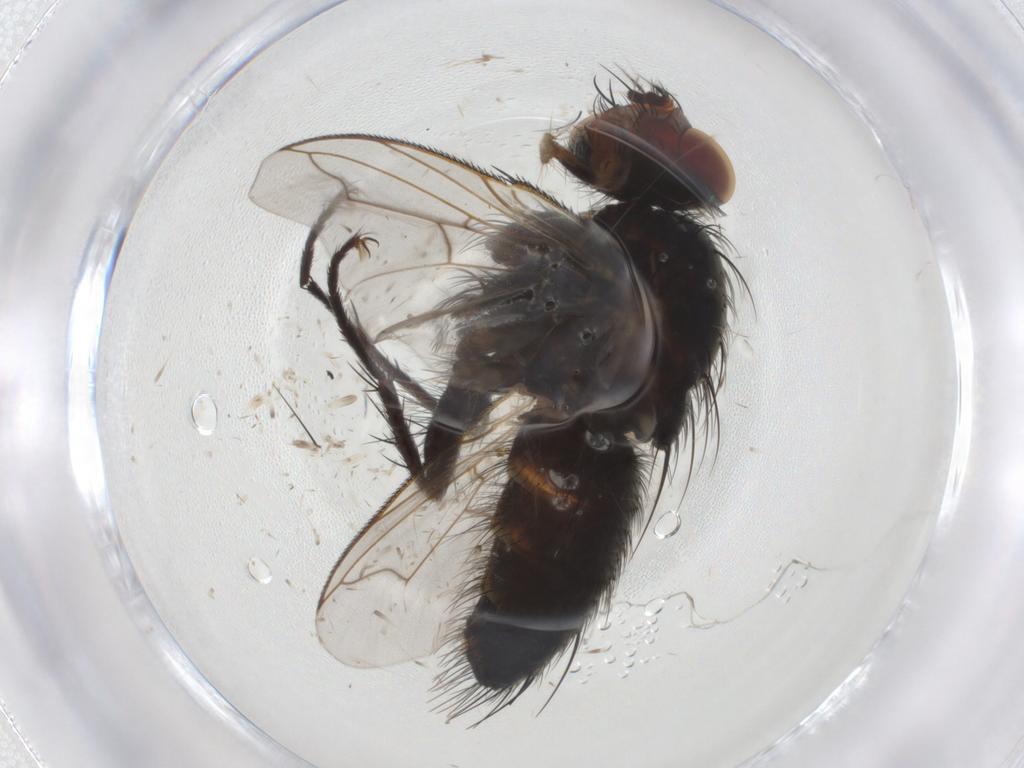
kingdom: Animalia
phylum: Arthropoda
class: Insecta
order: Diptera
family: Tachinidae
